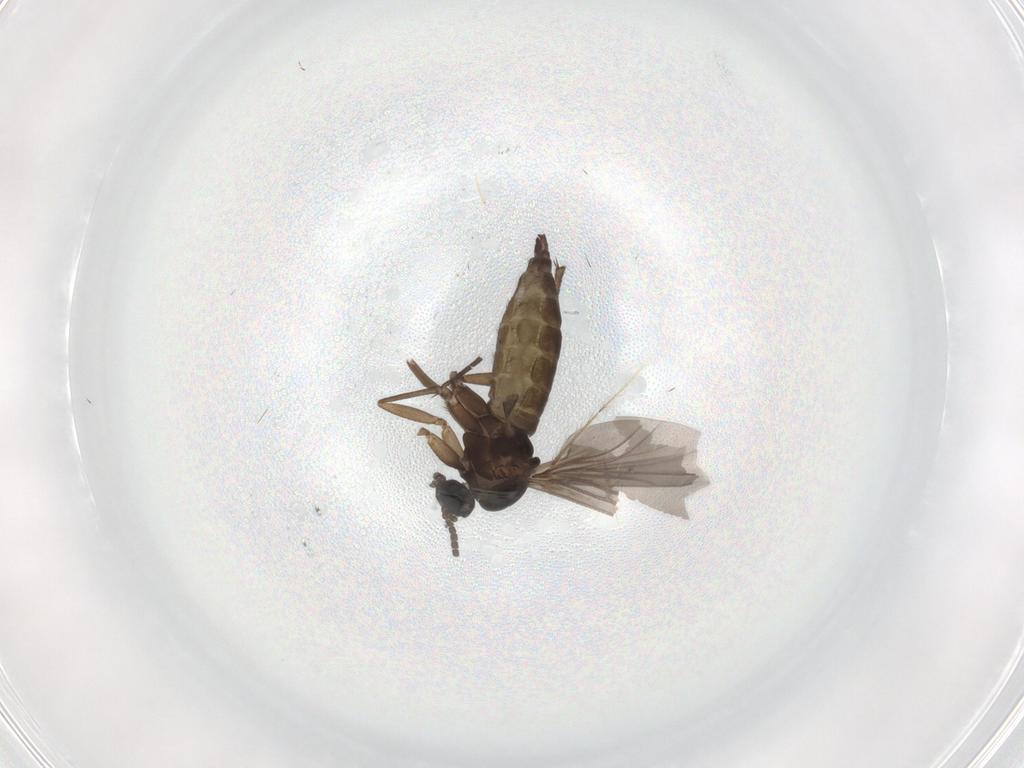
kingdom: Animalia
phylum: Arthropoda
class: Insecta
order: Diptera
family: Sciaridae
